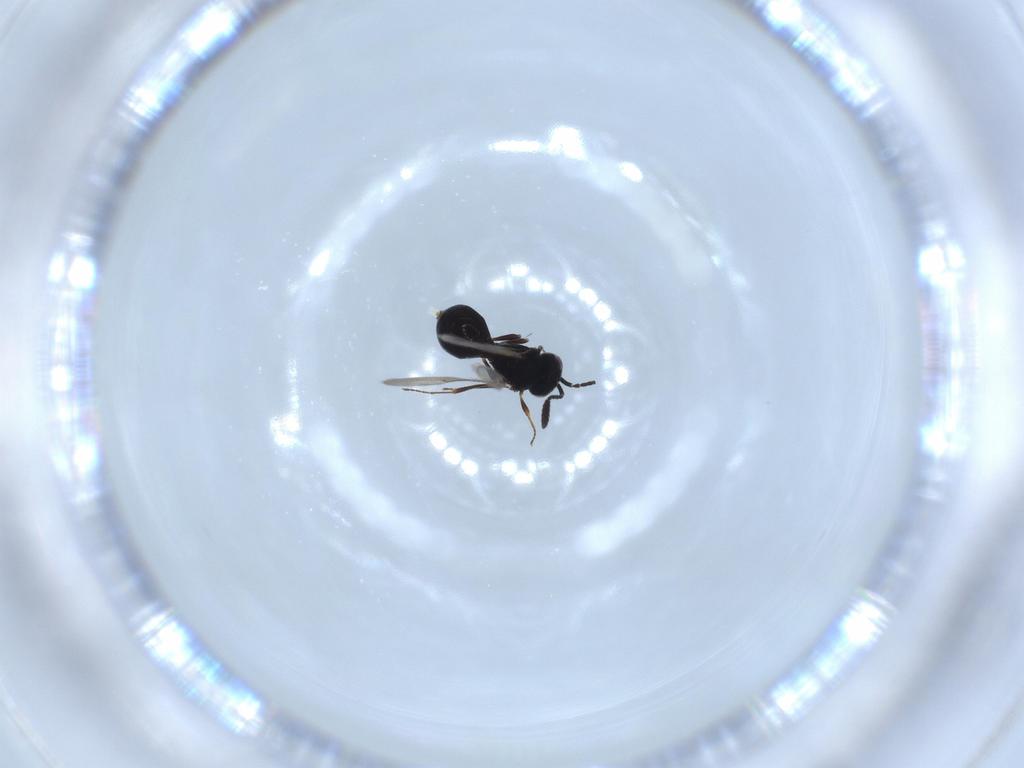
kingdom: Animalia
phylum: Arthropoda
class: Insecta
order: Hymenoptera
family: Scelionidae
